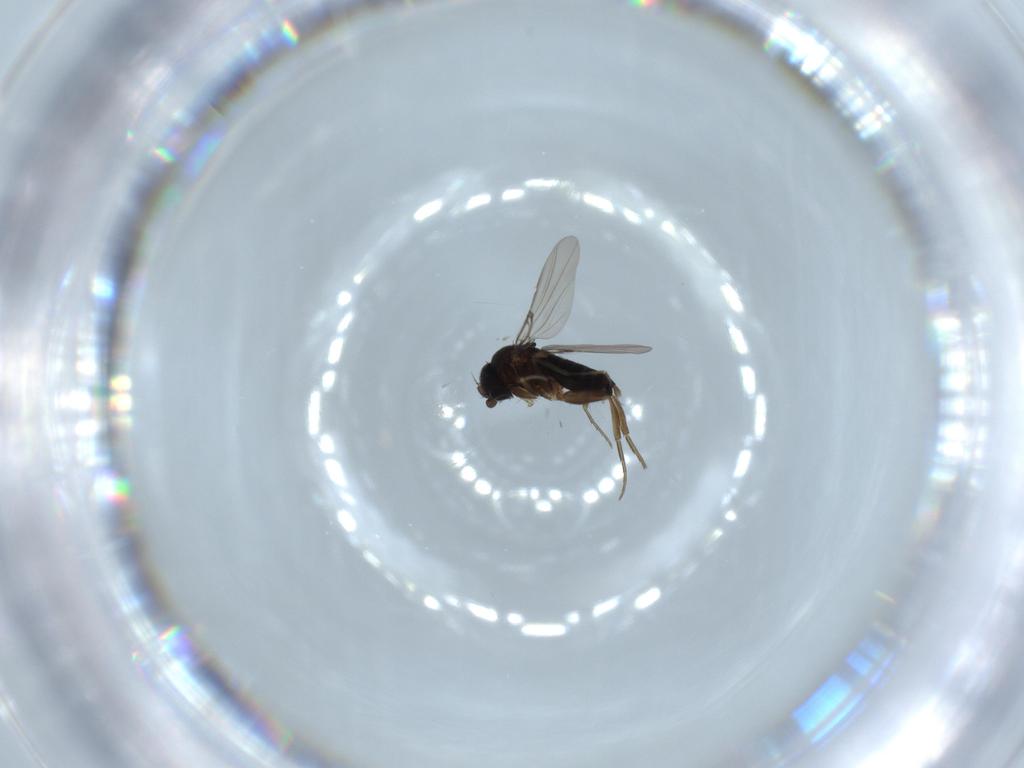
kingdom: Animalia
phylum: Arthropoda
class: Insecta
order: Diptera
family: Phoridae
